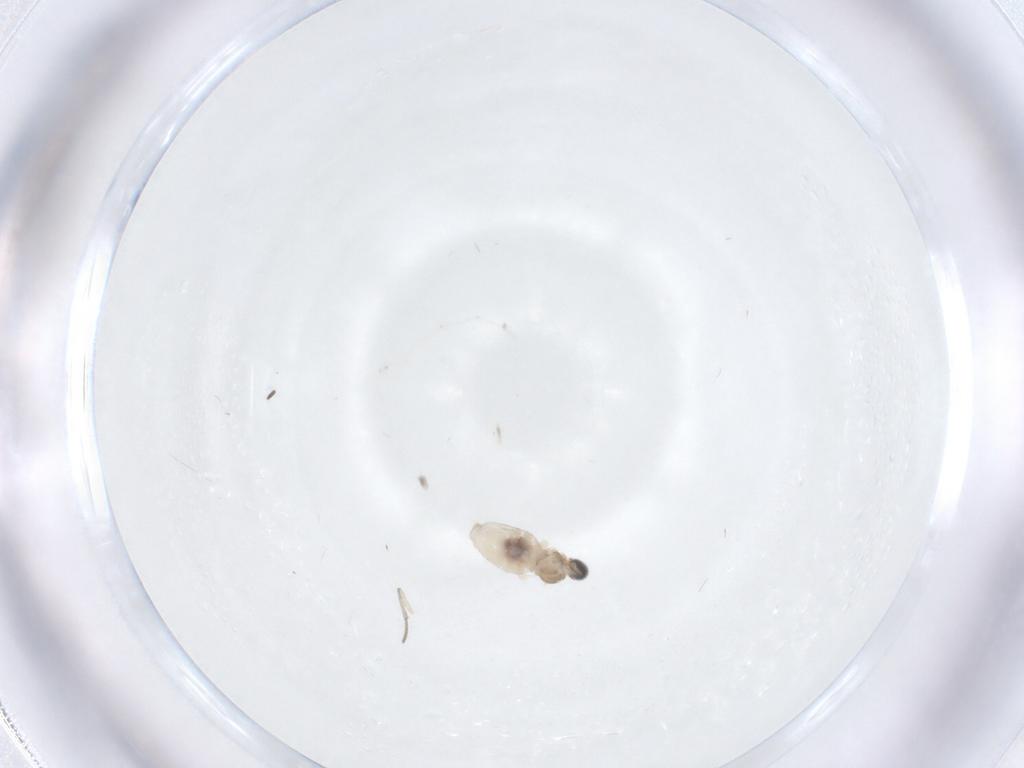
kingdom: Animalia
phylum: Arthropoda
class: Insecta
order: Diptera
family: Cecidomyiidae
